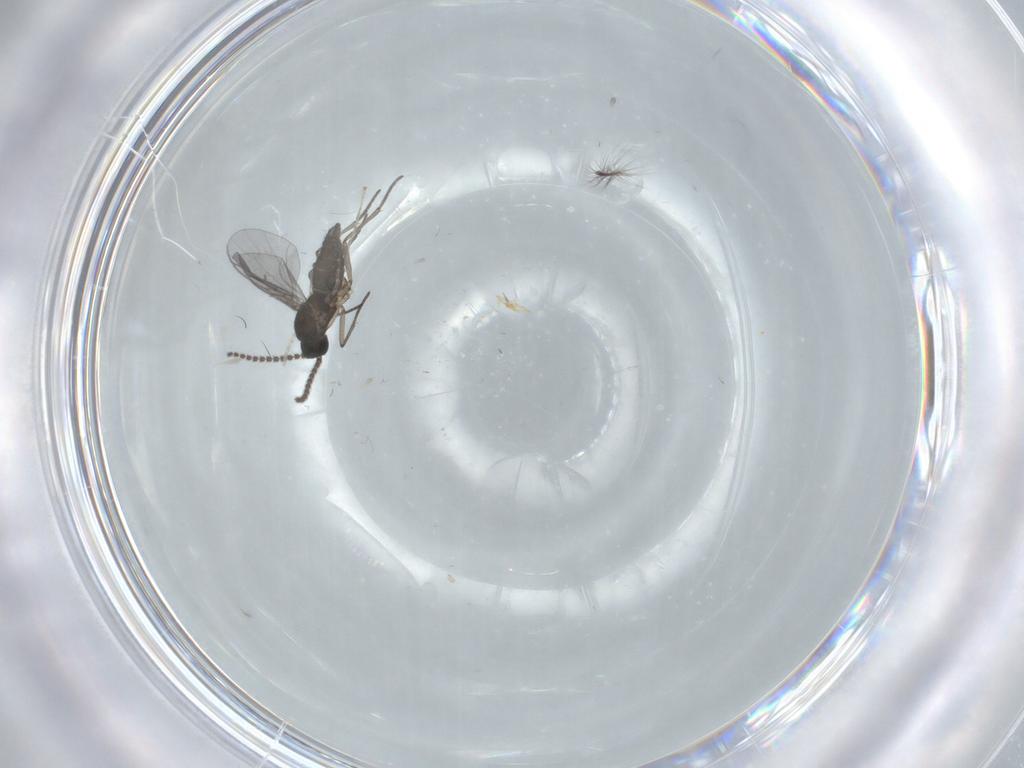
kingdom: Animalia
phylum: Arthropoda
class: Insecta
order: Diptera
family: Cecidomyiidae
